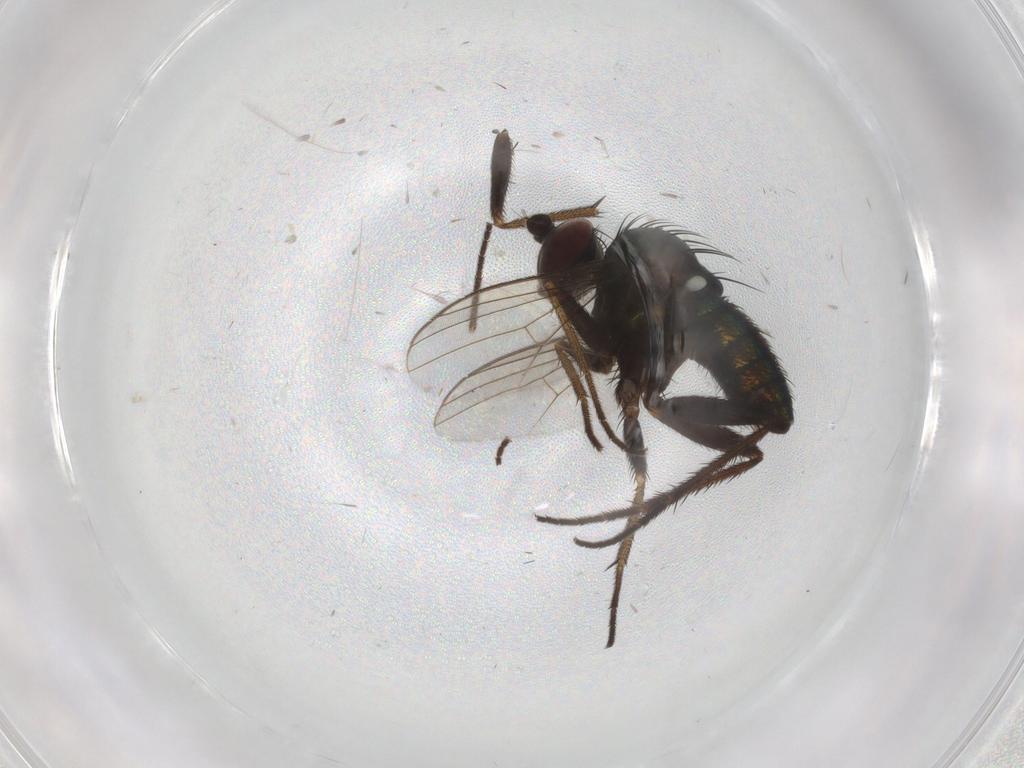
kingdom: Animalia
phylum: Arthropoda
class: Insecta
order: Diptera
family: Dolichopodidae
